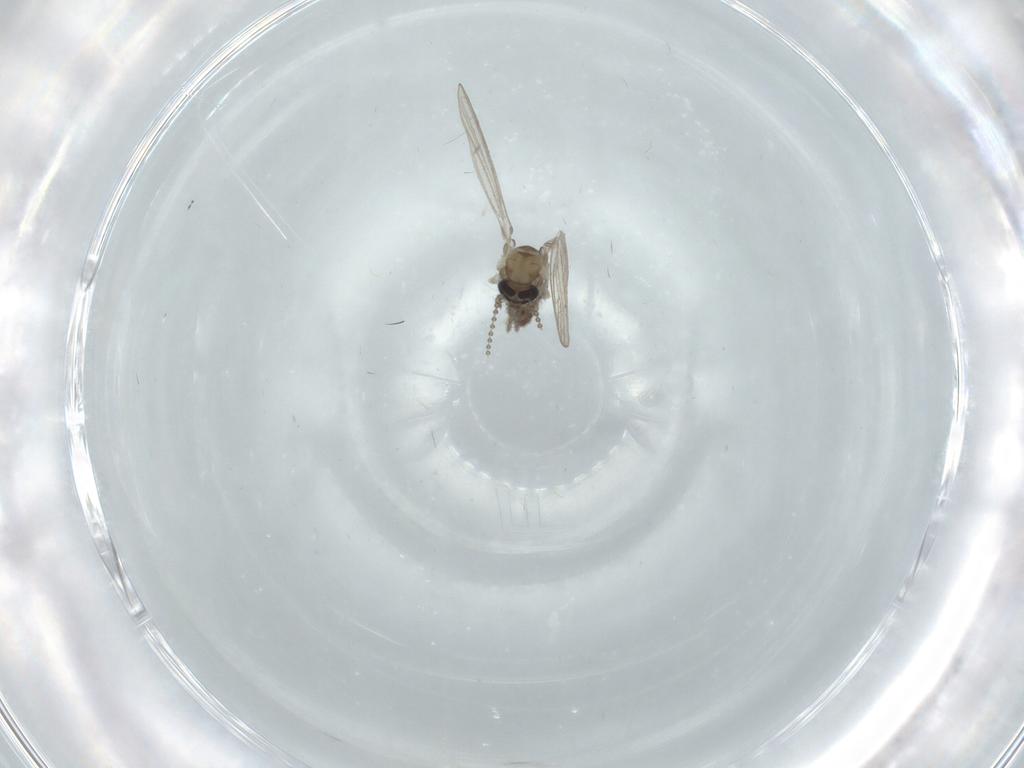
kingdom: Animalia
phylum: Arthropoda
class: Insecta
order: Diptera
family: Psychodidae
